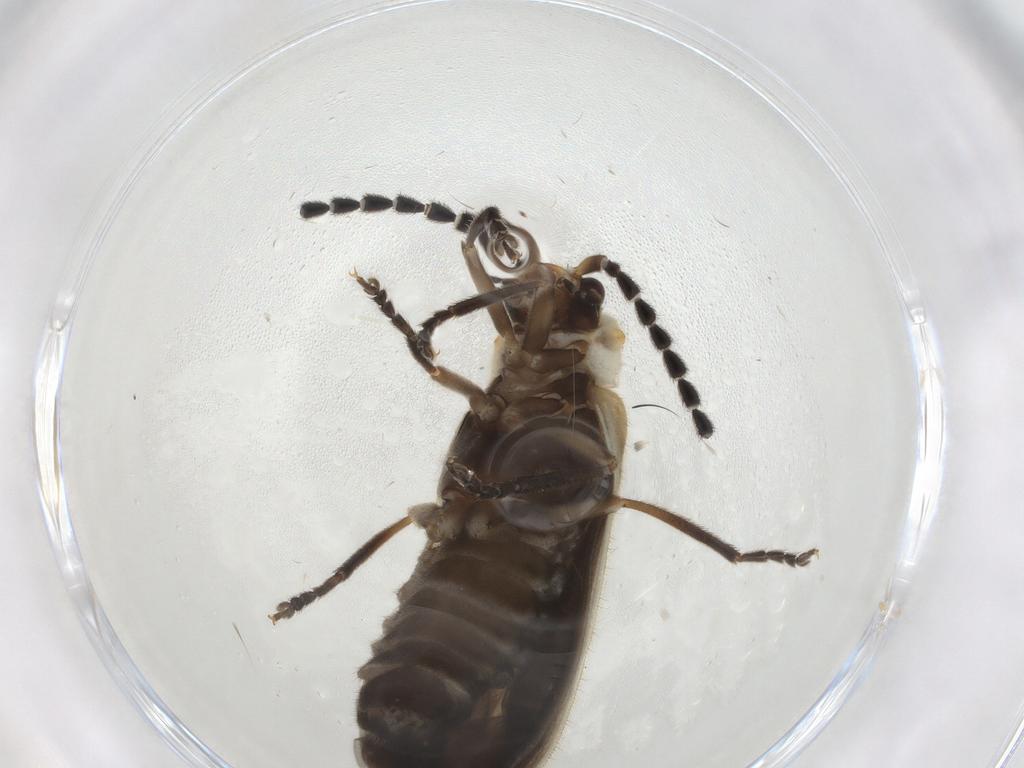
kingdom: Animalia
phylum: Arthropoda
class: Insecta
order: Coleoptera
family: Cantharidae
